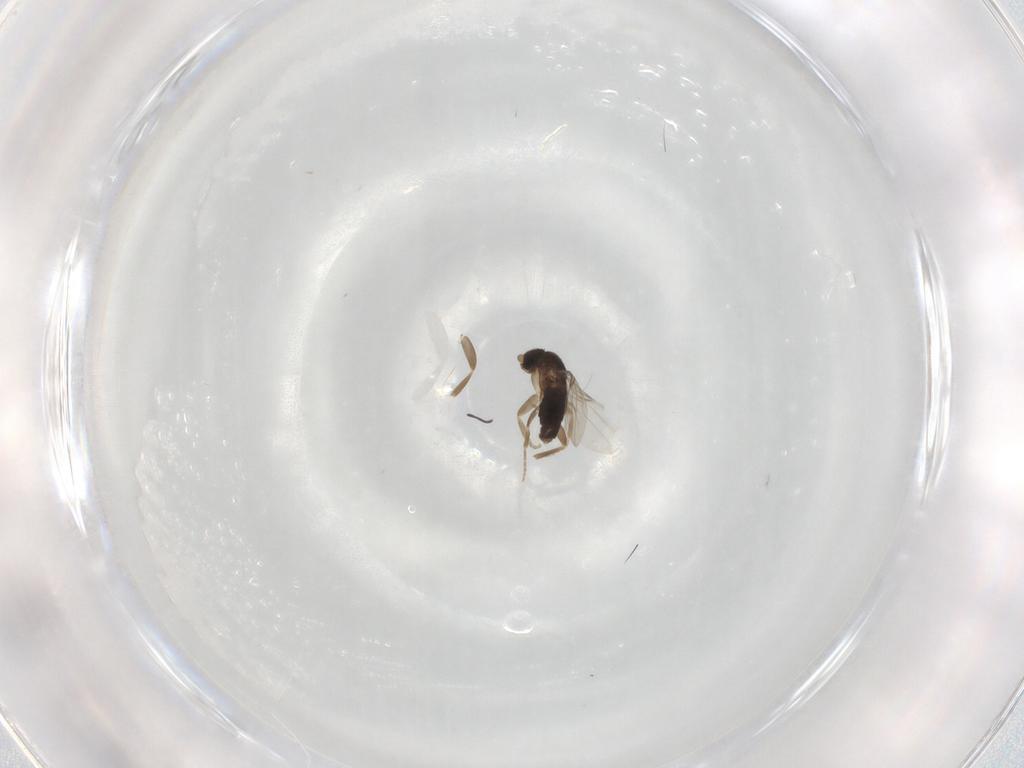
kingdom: Animalia
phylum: Arthropoda
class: Insecta
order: Diptera
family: Phoridae
